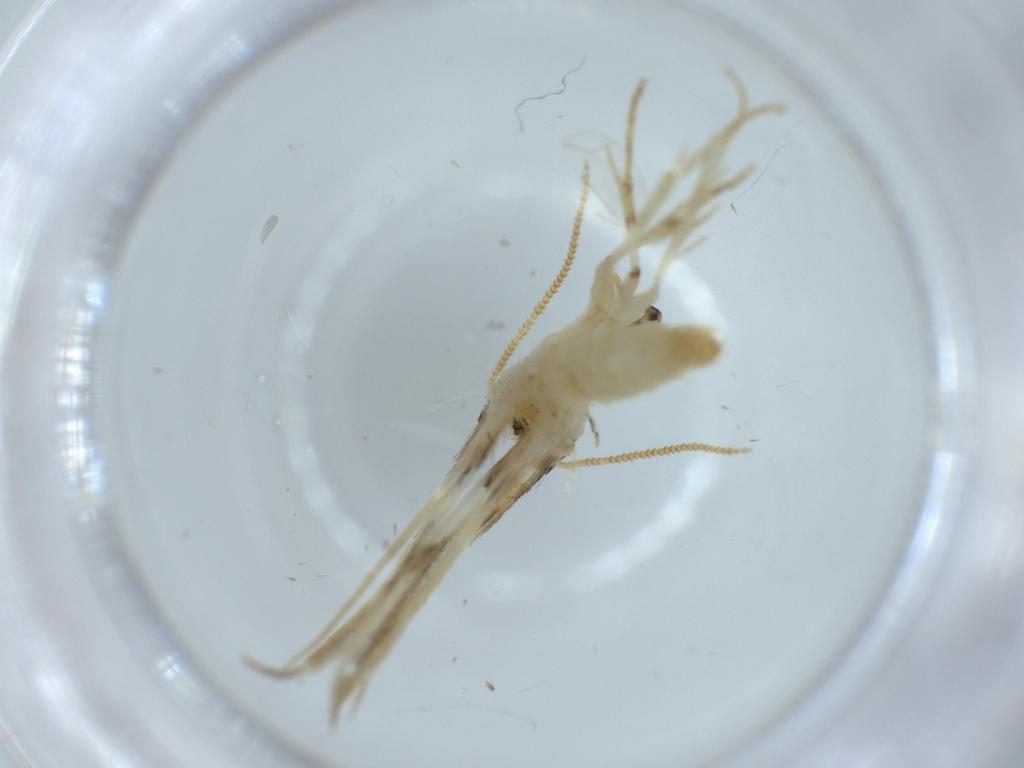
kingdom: Animalia
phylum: Arthropoda
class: Insecta
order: Lepidoptera
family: Tineidae
